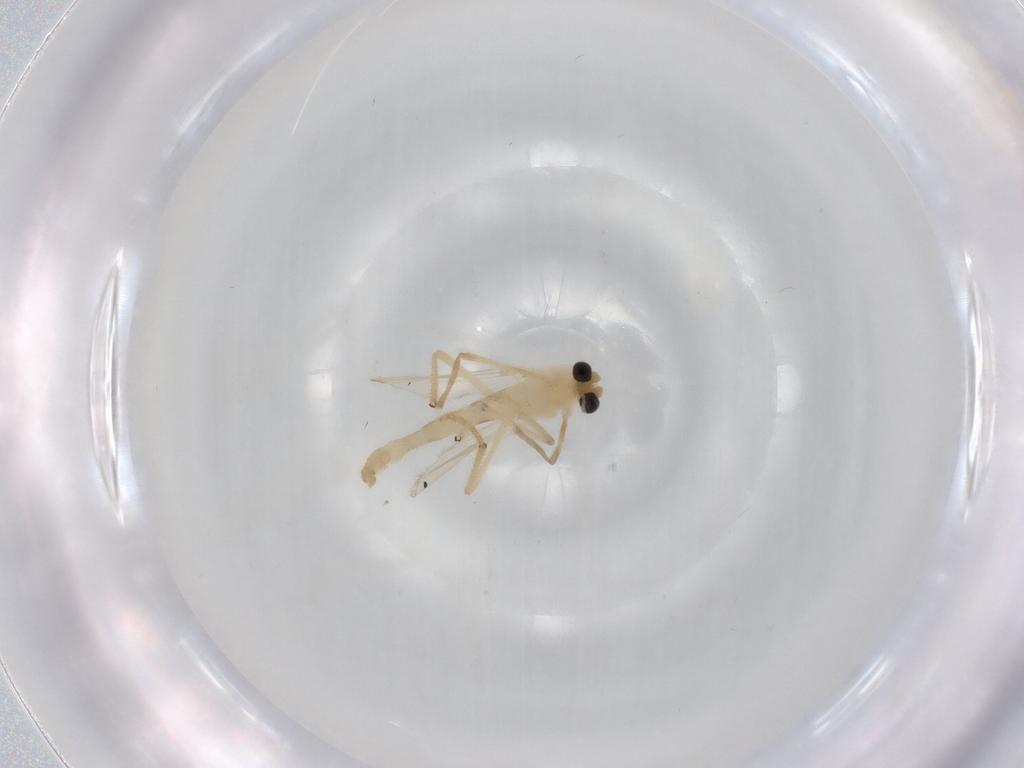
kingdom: Animalia
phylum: Arthropoda
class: Insecta
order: Diptera
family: Chironomidae
